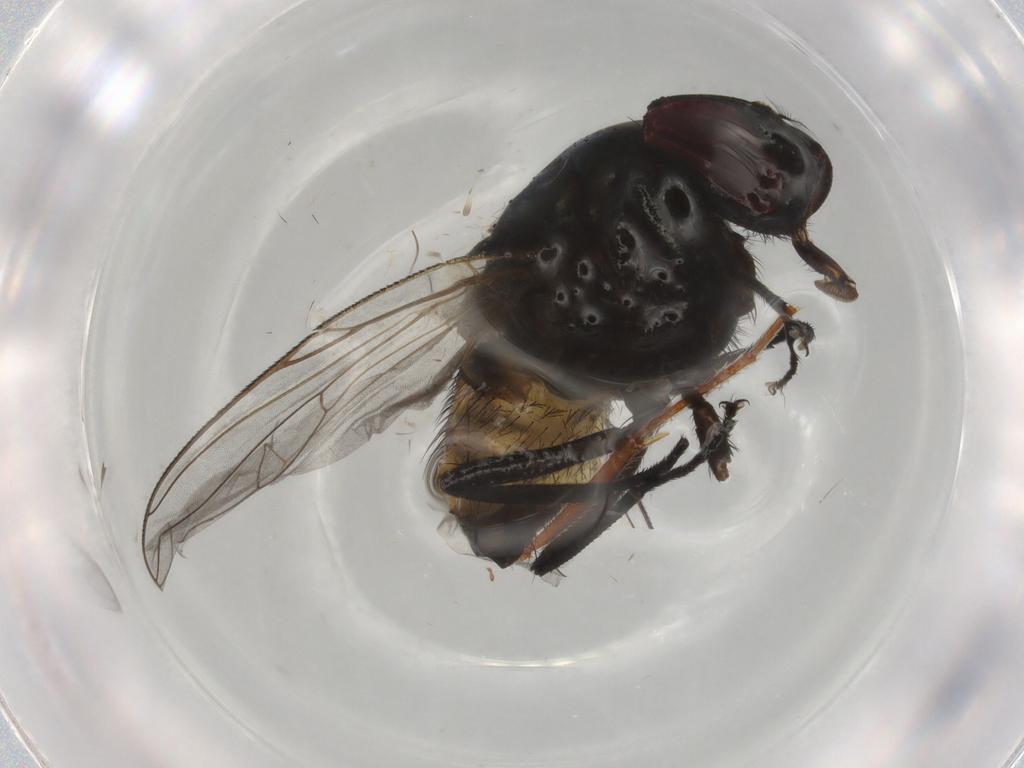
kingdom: Animalia
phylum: Arthropoda
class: Insecta
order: Diptera
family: Muscidae
